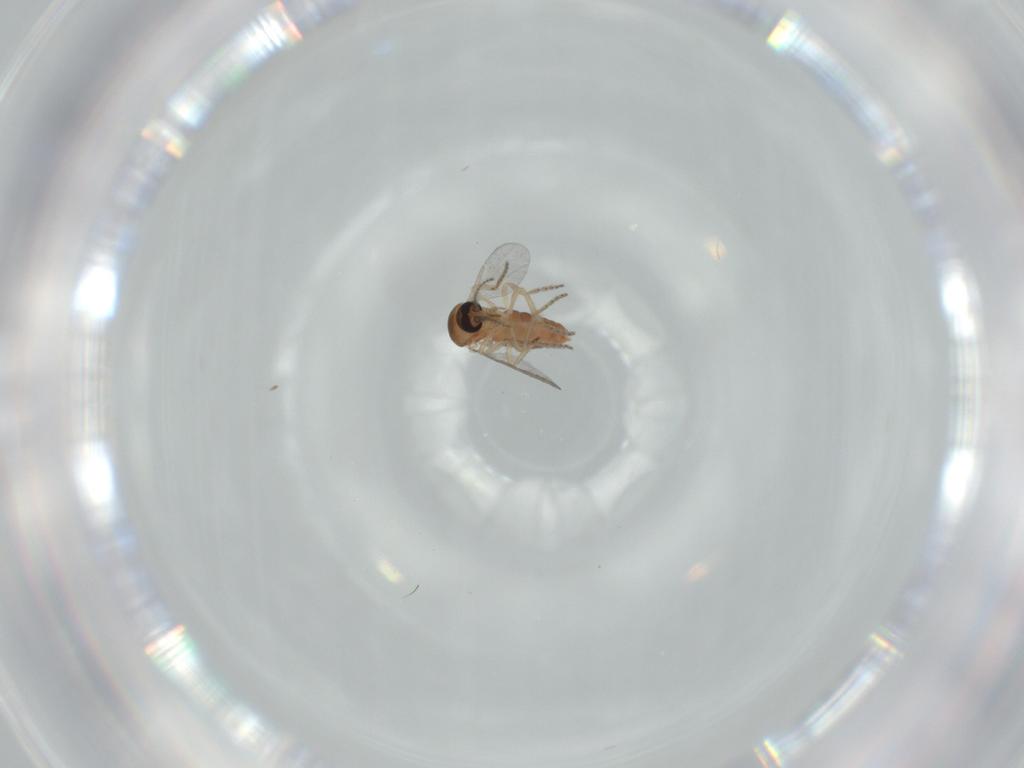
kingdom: Animalia
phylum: Arthropoda
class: Insecta
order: Diptera
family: Ceratopogonidae
